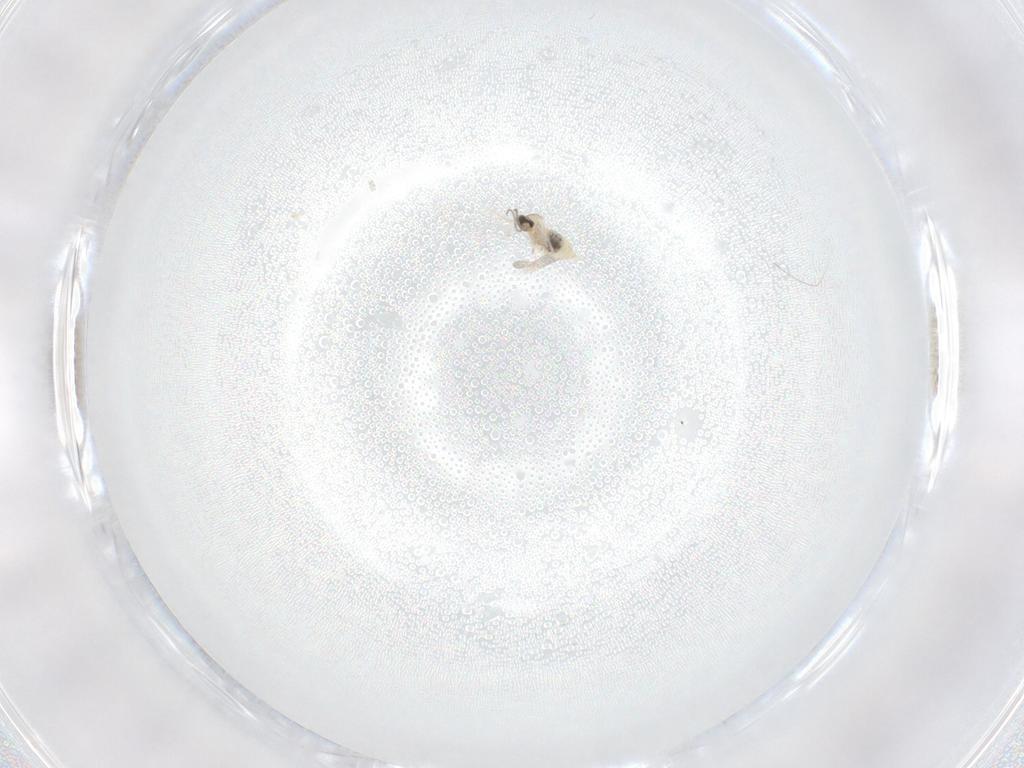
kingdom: Animalia
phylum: Arthropoda
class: Insecta
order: Diptera
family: Cecidomyiidae
